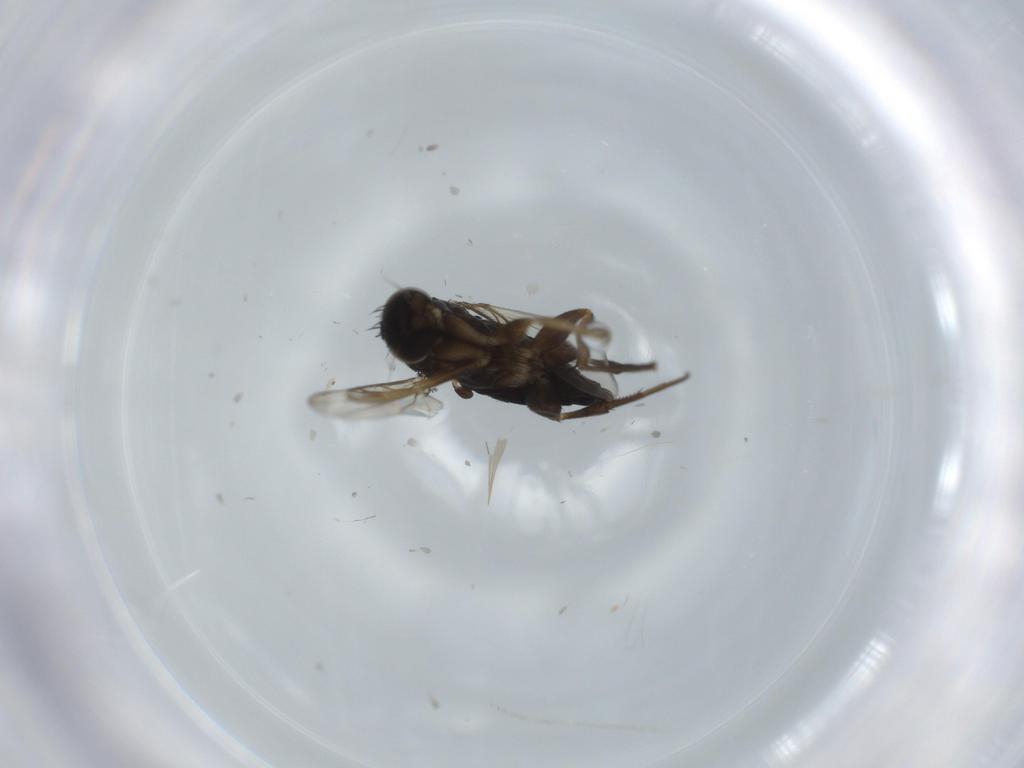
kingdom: Animalia
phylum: Arthropoda
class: Insecta
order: Diptera
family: Phoridae
